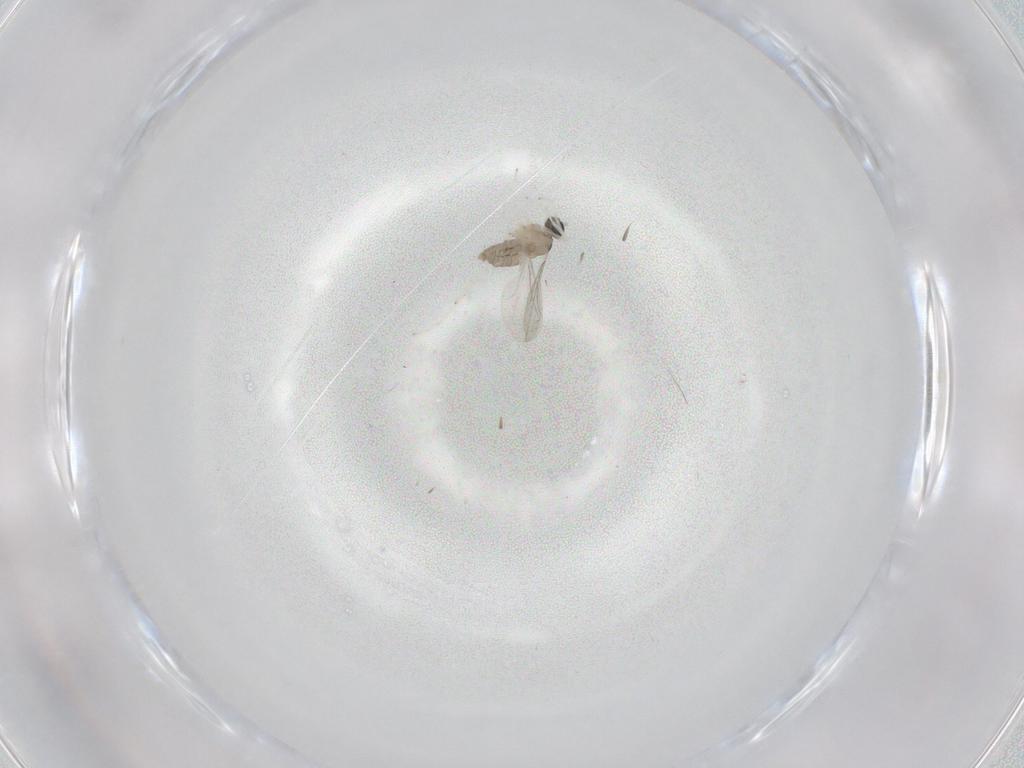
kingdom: Animalia
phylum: Arthropoda
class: Insecta
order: Diptera
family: Cecidomyiidae
